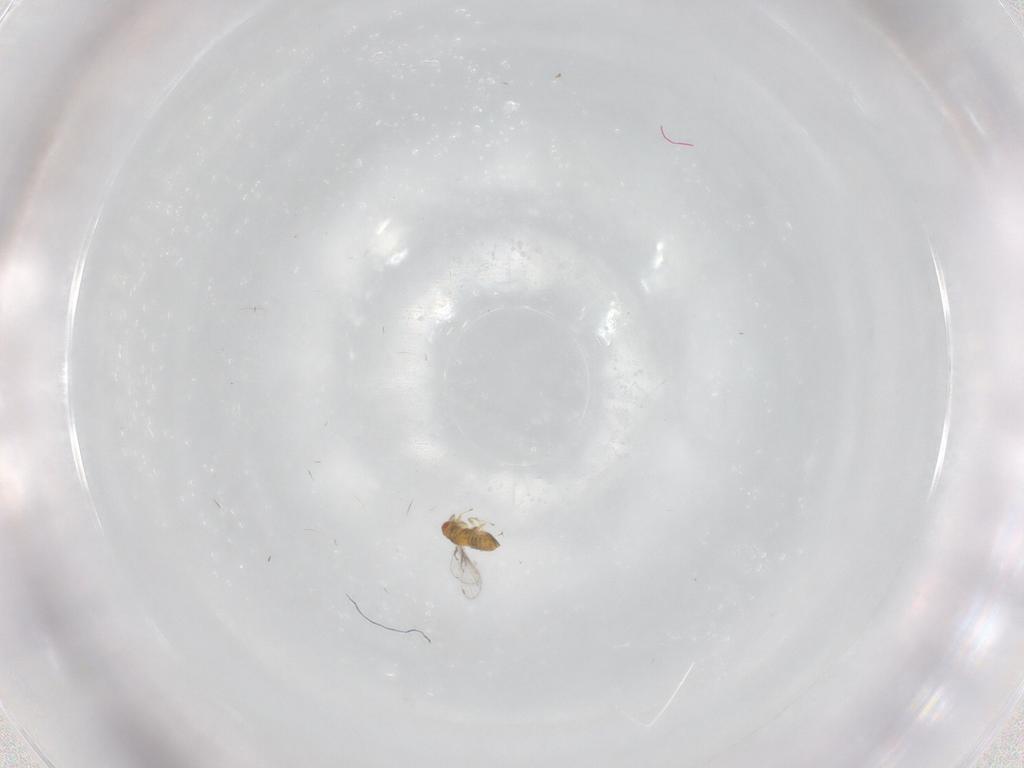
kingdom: Animalia
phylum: Arthropoda
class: Insecta
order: Hymenoptera
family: Trichogrammatidae
